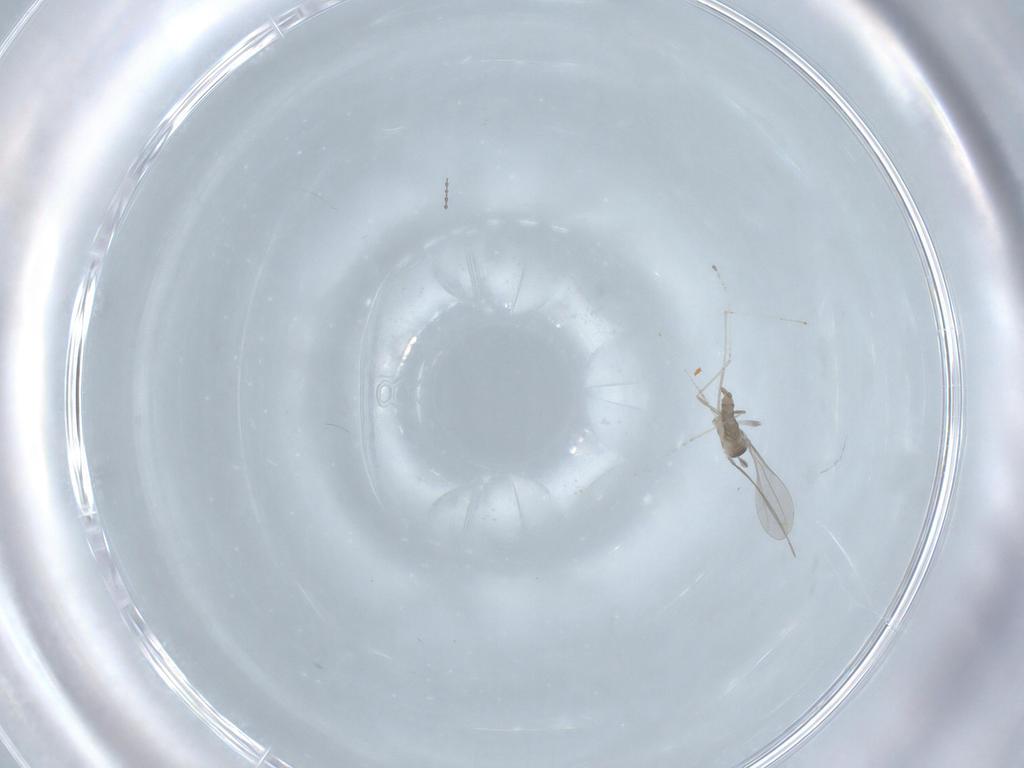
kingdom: Animalia
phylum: Arthropoda
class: Insecta
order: Diptera
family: Cecidomyiidae
